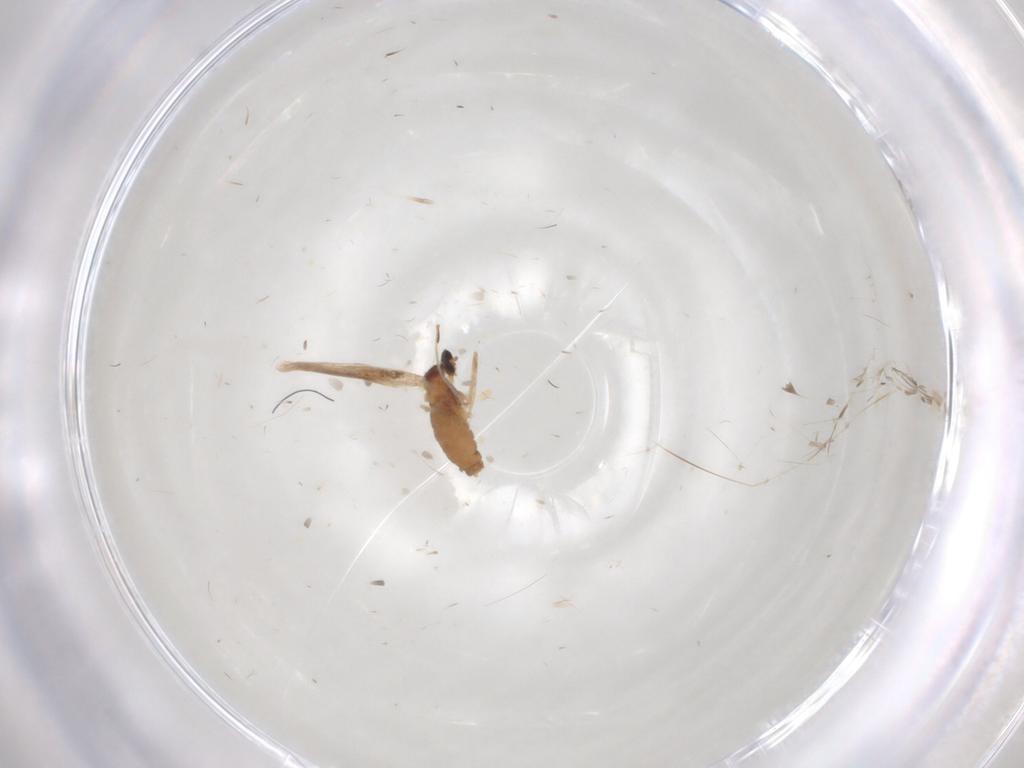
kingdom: Animalia
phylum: Arthropoda
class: Insecta
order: Diptera
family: Cecidomyiidae
